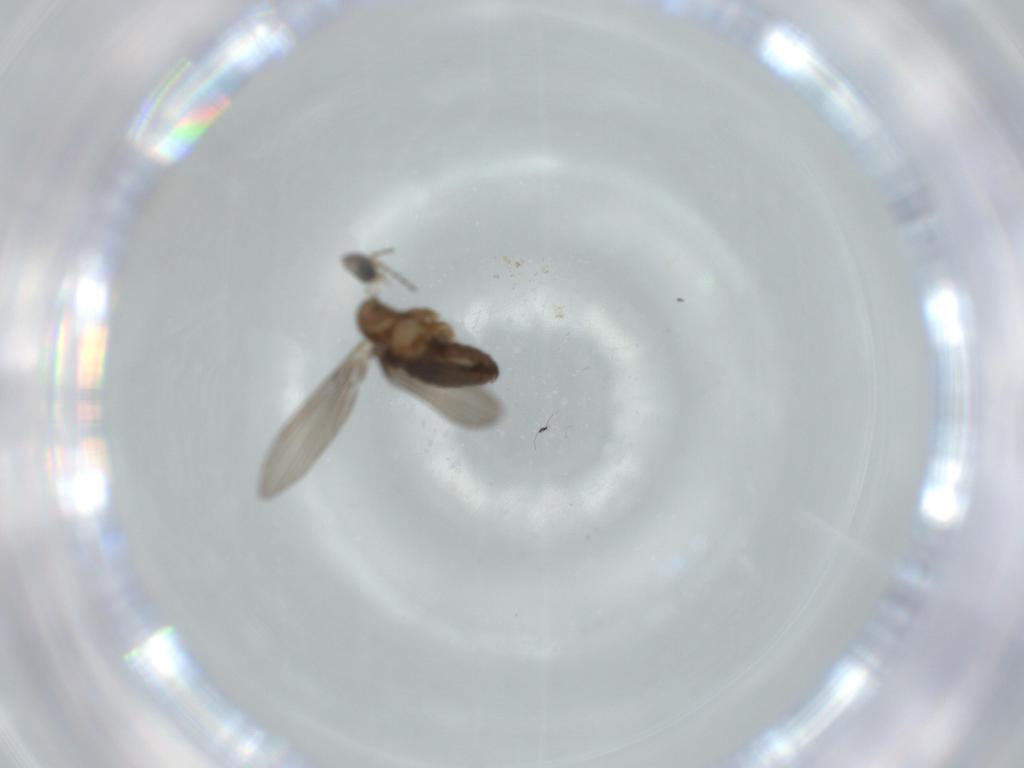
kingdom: Animalia
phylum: Arthropoda
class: Insecta
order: Diptera
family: Psychodidae
